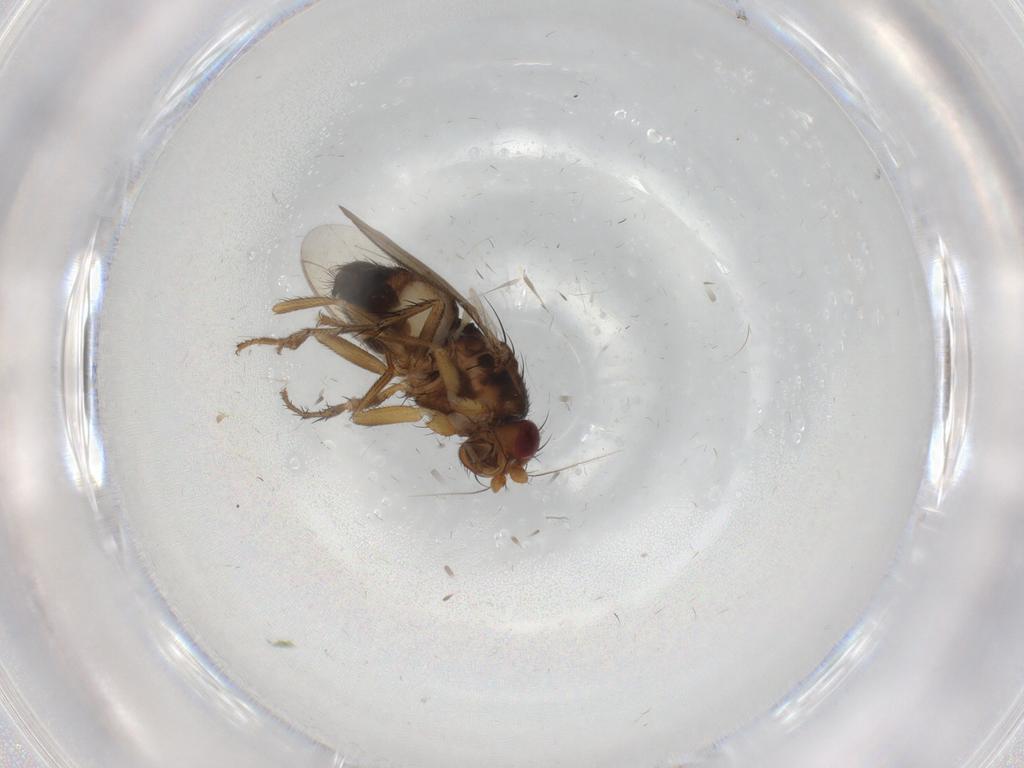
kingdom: Animalia
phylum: Arthropoda
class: Insecta
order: Diptera
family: Sphaeroceridae
